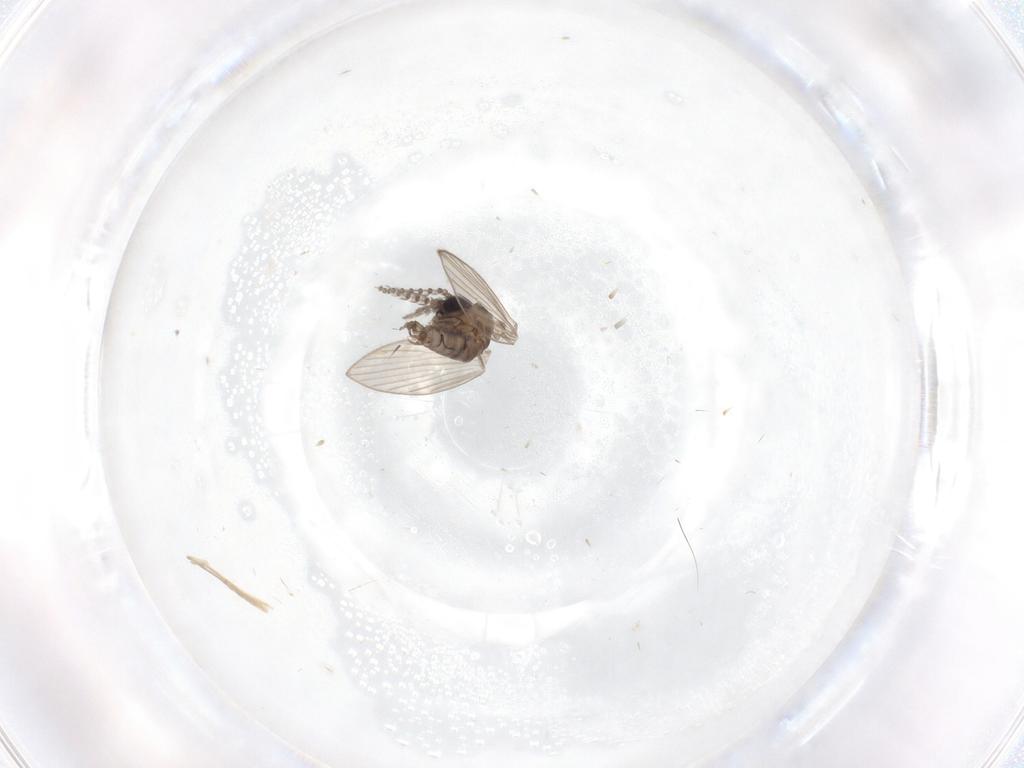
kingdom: Animalia
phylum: Arthropoda
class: Insecta
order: Diptera
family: Psychodidae
